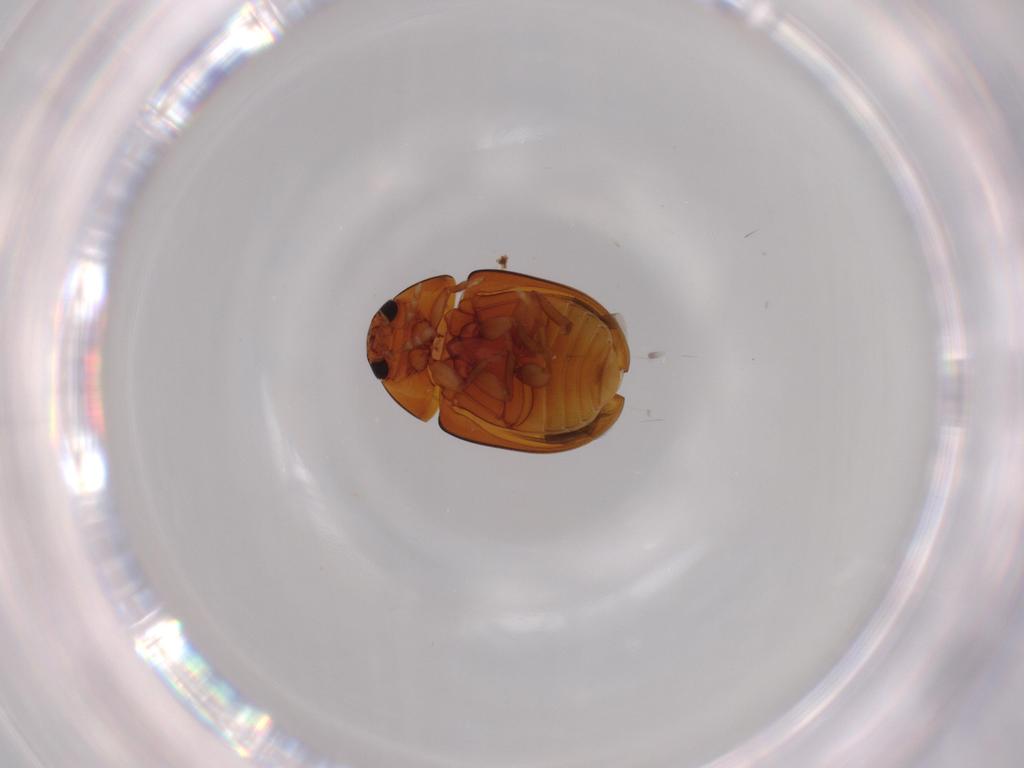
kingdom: Animalia
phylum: Arthropoda
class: Insecta
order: Coleoptera
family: Phalacridae
